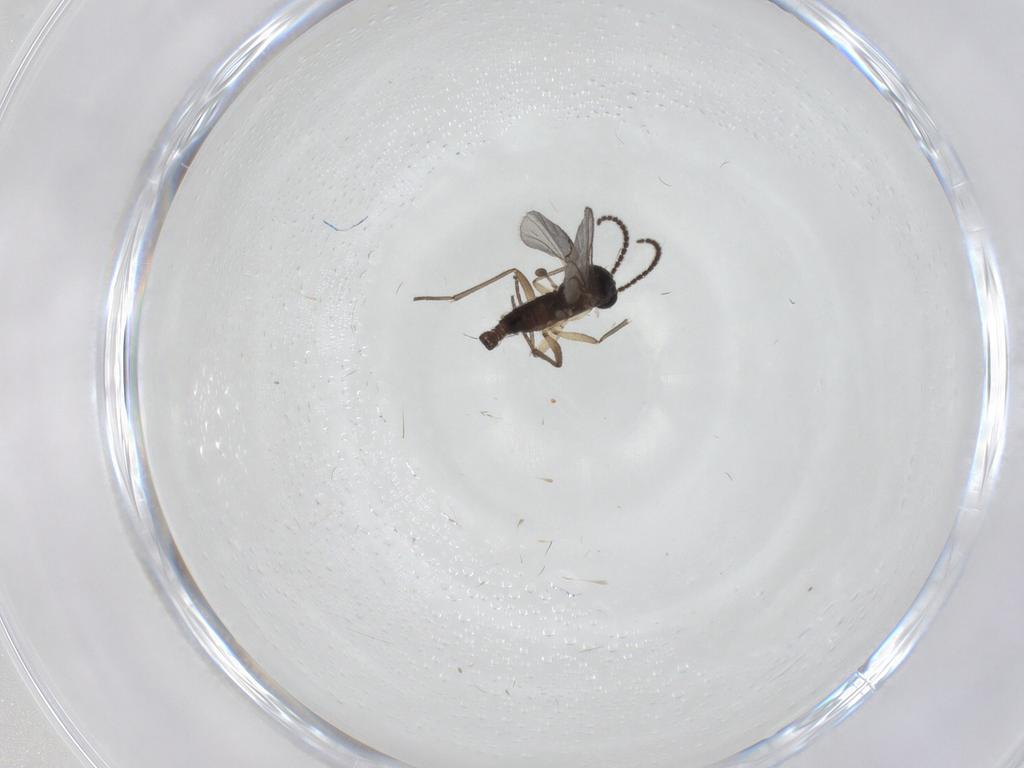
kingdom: Animalia
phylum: Arthropoda
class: Insecta
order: Diptera
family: Sciaridae
